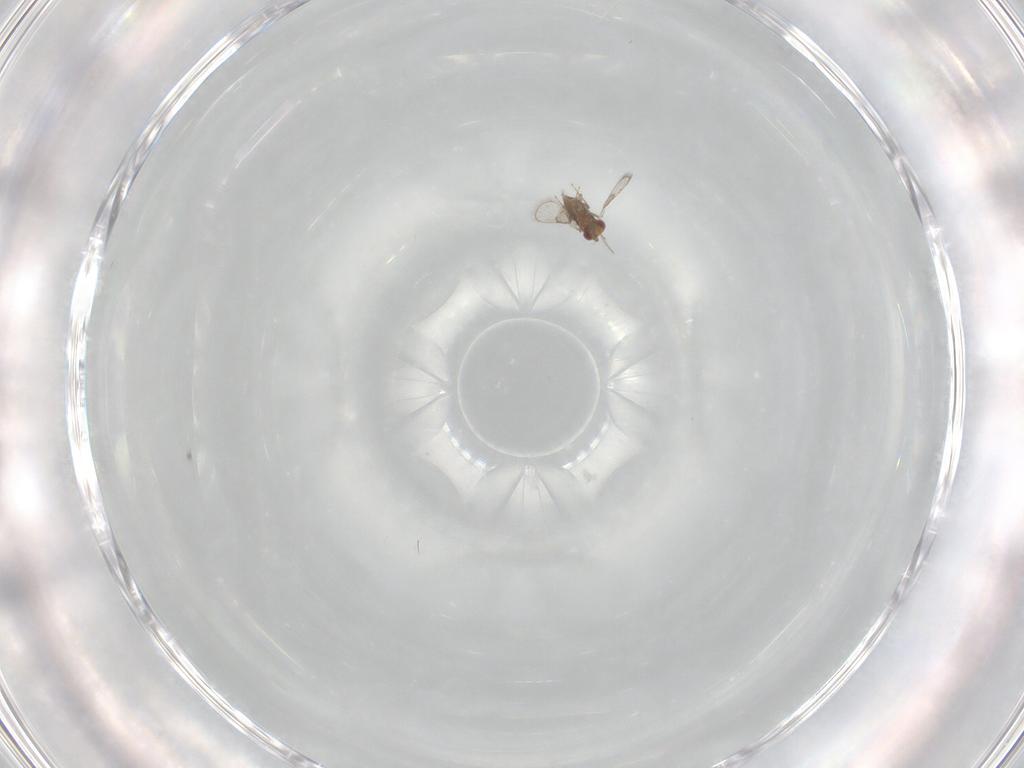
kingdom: Animalia
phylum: Arthropoda
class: Insecta
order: Hymenoptera
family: Trichogrammatidae
